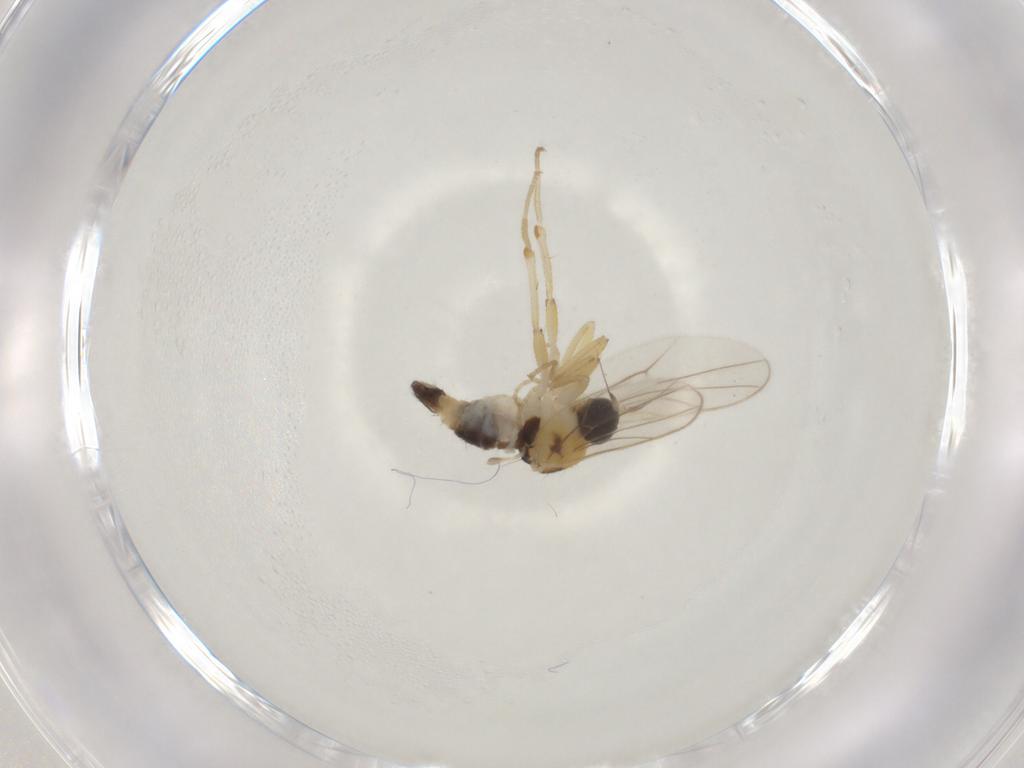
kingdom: Animalia
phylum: Arthropoda
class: Insecta
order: Diptera
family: Hybotidae
